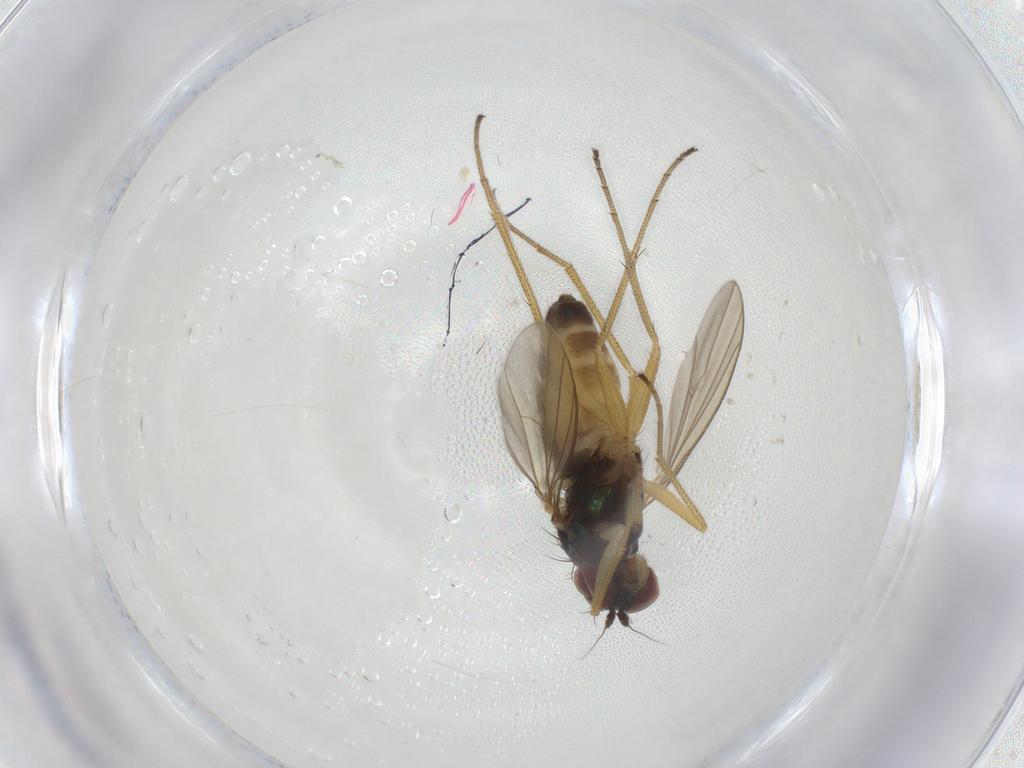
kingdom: Animalia
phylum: Arthropoda
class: Insecta
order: Diptera
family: Dolichopodidae
